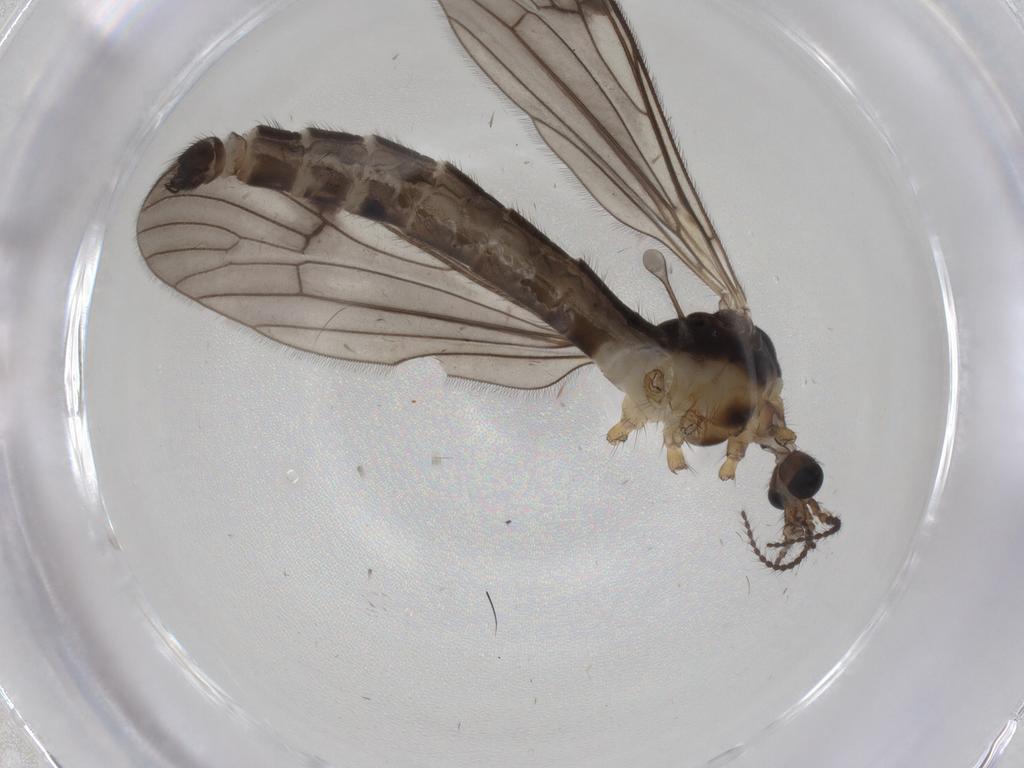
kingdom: Animalia
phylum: Arthropoda
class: Insecta
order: Diptera
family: Limoniidae
